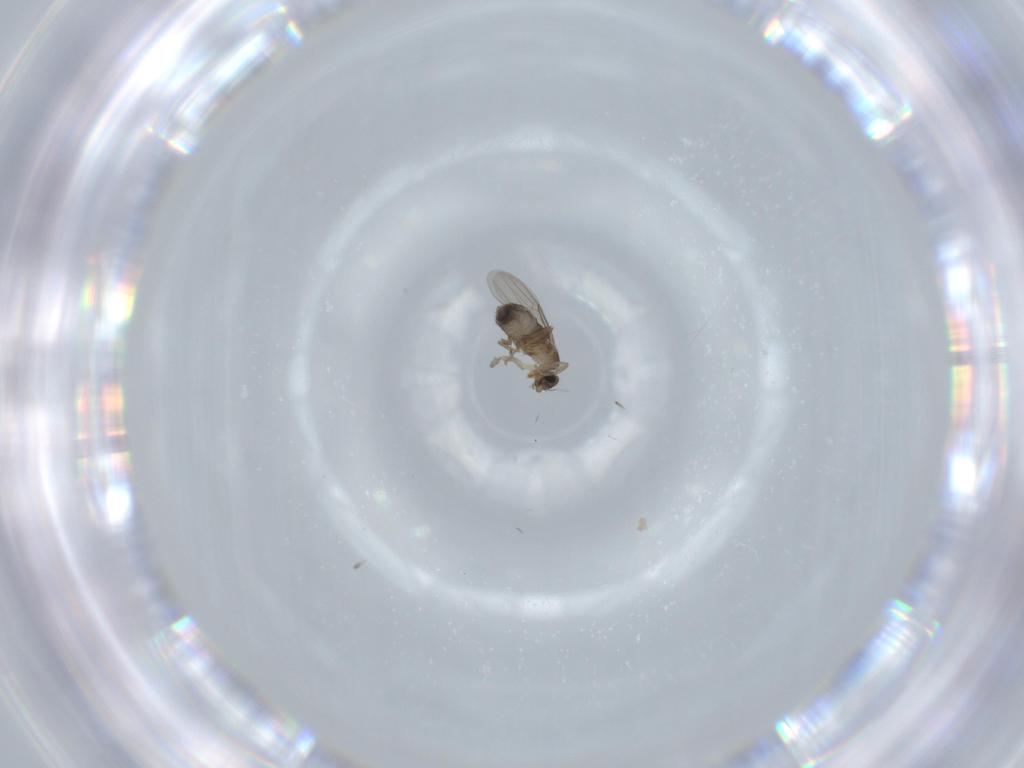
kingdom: Animalia
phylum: Arthropoda
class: Insecta
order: Diptera
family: Phoridae
